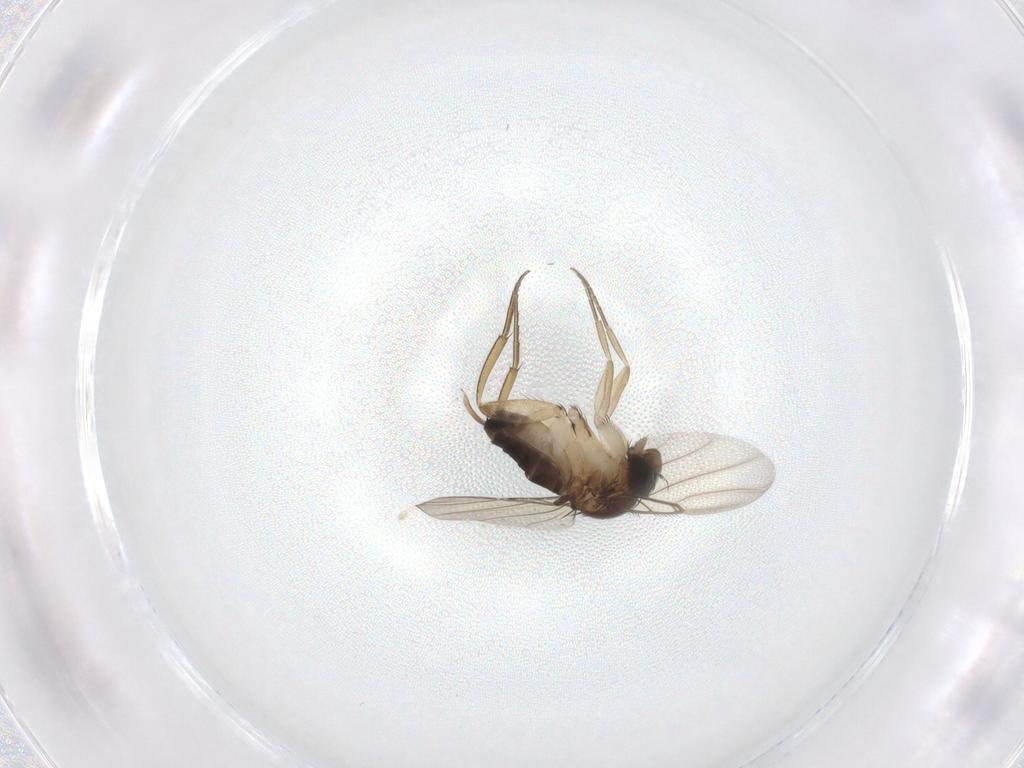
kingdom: Animalia
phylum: Arthropoda
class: Insecta
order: Diptera
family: Phoridae
